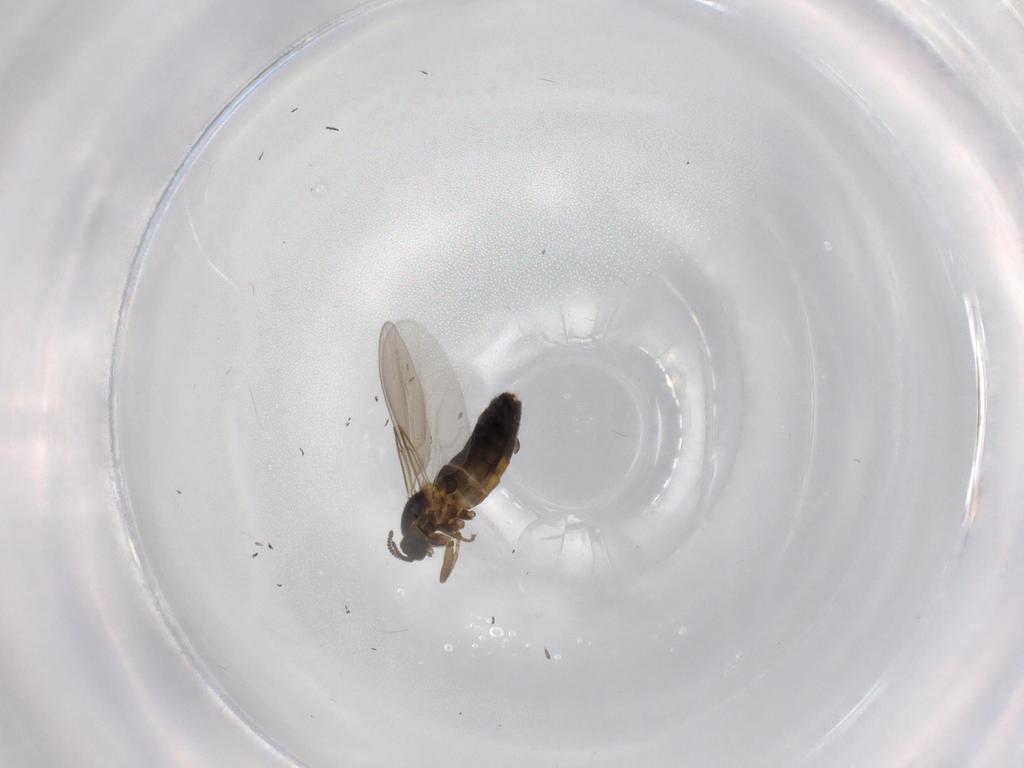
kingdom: Animalia
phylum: Arthropoda
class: Insecta
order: Diptera
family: Scatopsidae
